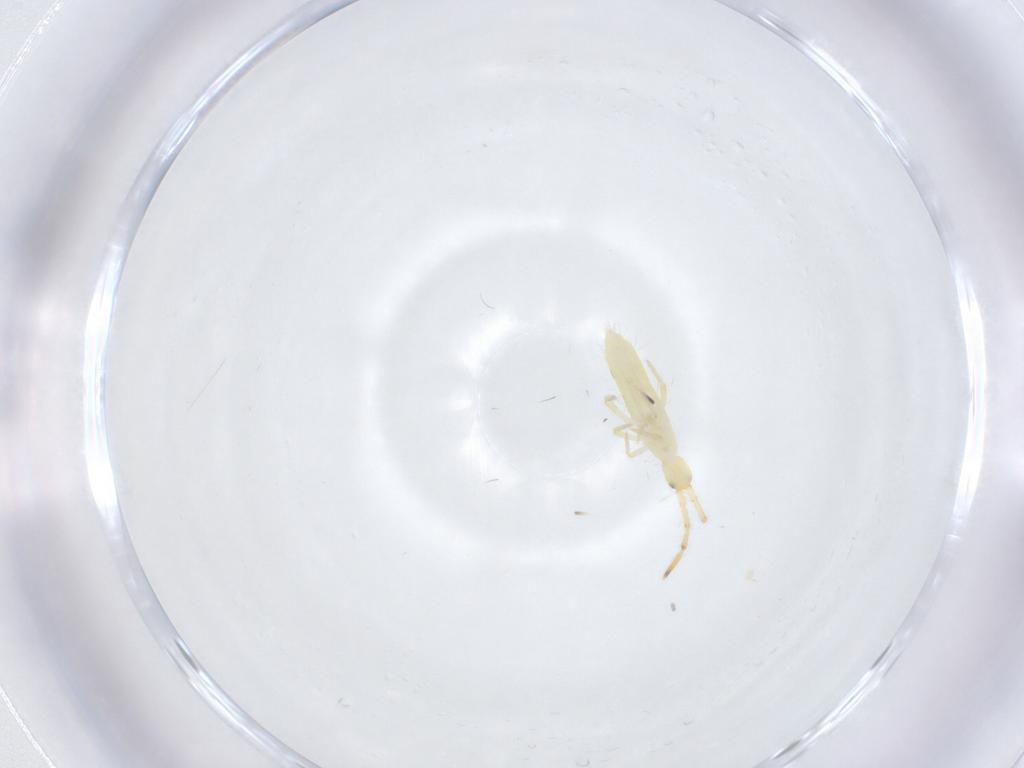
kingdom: Animalia
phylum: Arthropoda
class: Collembola
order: Entomobryomorpha
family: Entomobryidae
